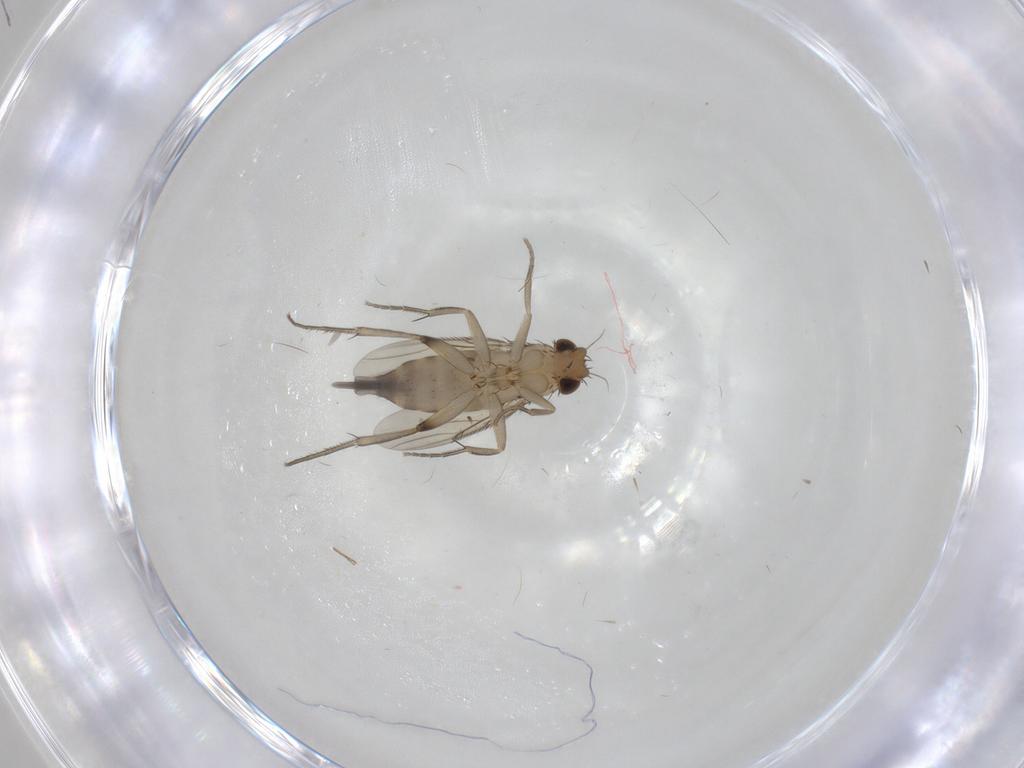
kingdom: Animalia
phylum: Arthropoda
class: Insecta
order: Diptera
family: Phoridae
